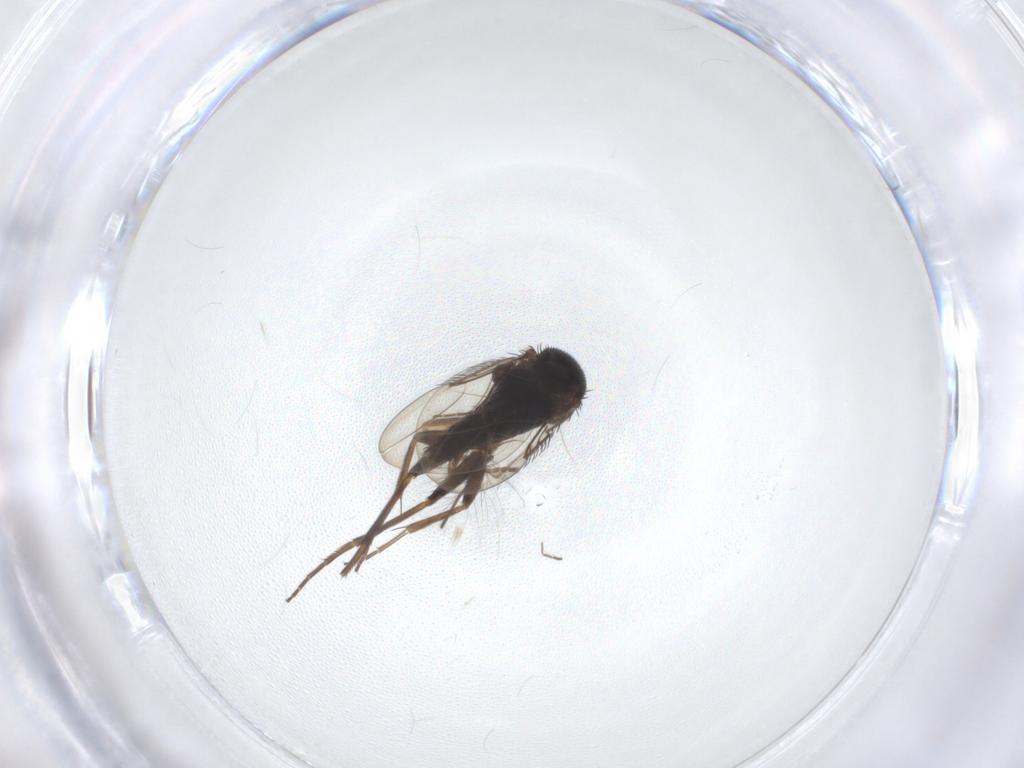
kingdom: Animalia
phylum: Arthropoda
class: Insecta
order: Diptera
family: Phoridae
